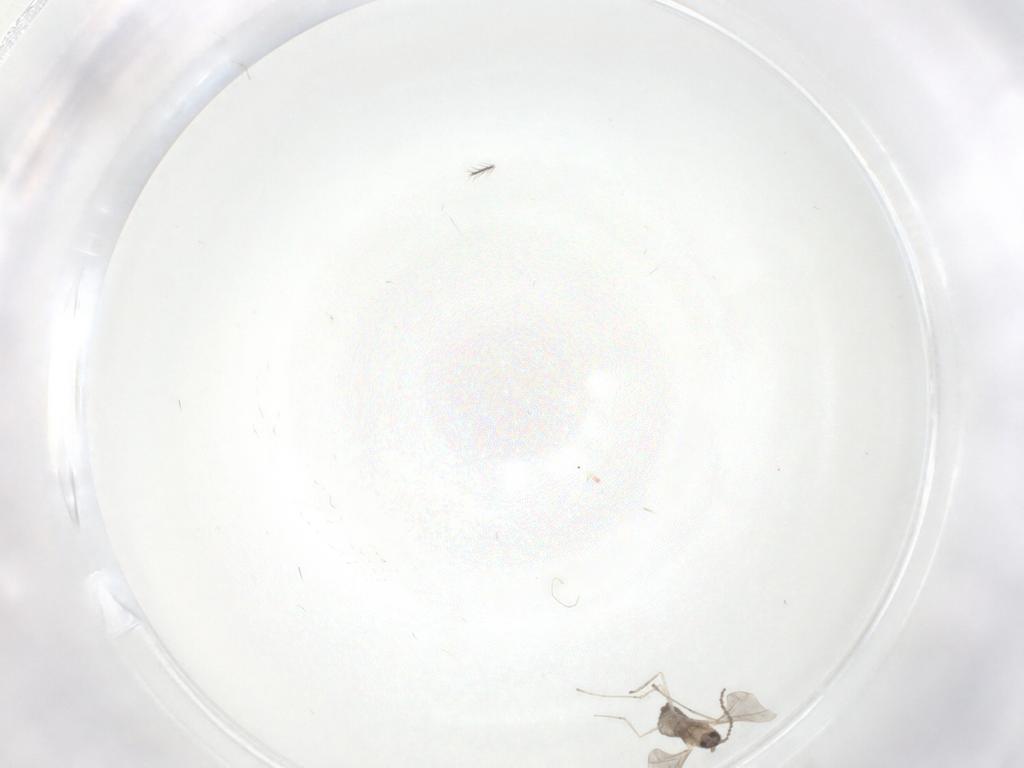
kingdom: Animalia
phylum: Arthropoda
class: Insecta
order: Diptera
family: Cecidomyiidae
